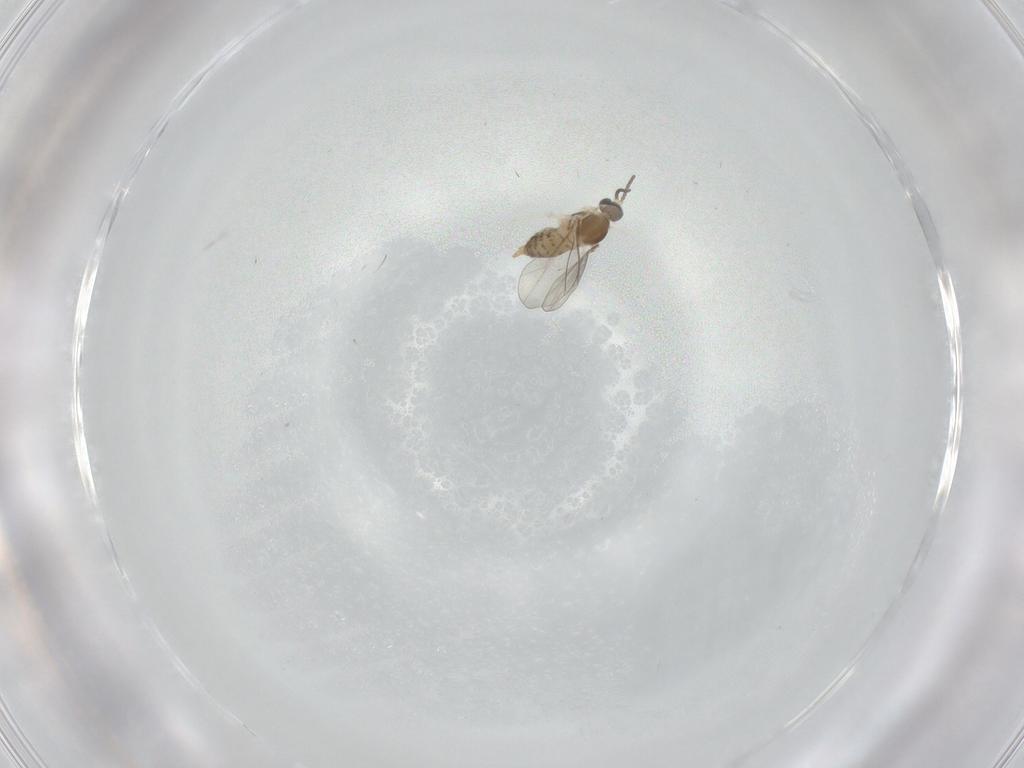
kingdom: Animalia
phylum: Arthropoda
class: Insecta
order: Diptera
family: Cecidomyiidae
